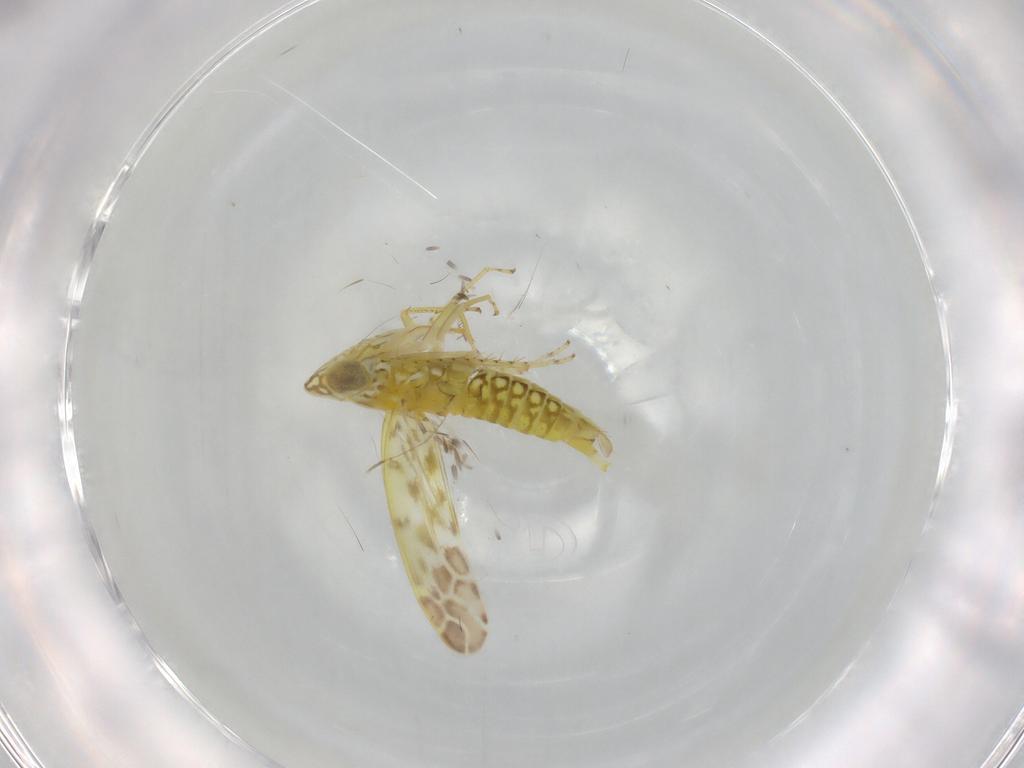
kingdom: Animalia
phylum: Arthropoda
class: Insecta
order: Hemiptera
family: Cicadellidae
